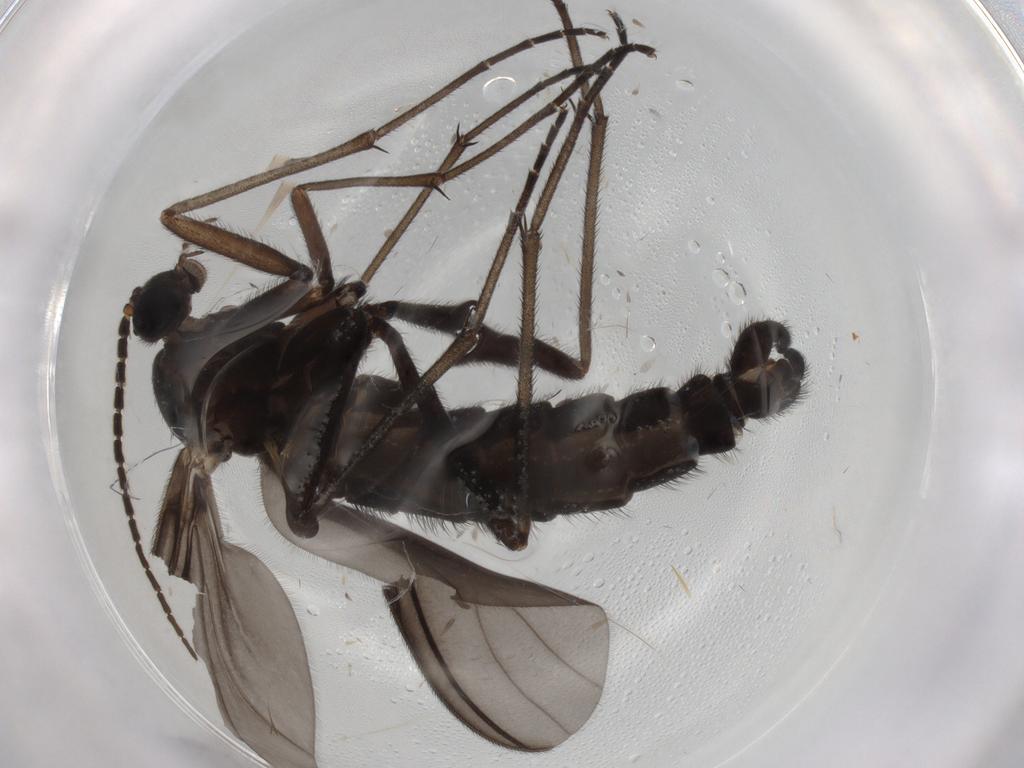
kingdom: Animalia
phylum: Arthropoda
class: Insecta
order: Diptera
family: Sciaridae
